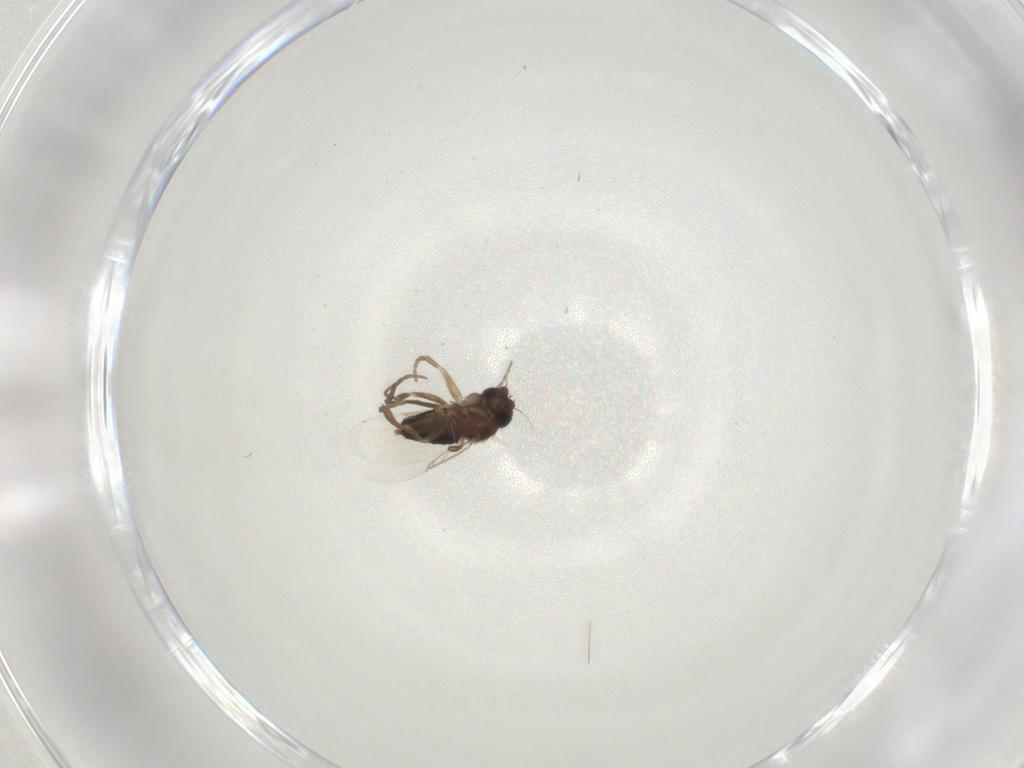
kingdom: Animalia
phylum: Arthropoda
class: Insecta
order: Diptera
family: Phoridae
